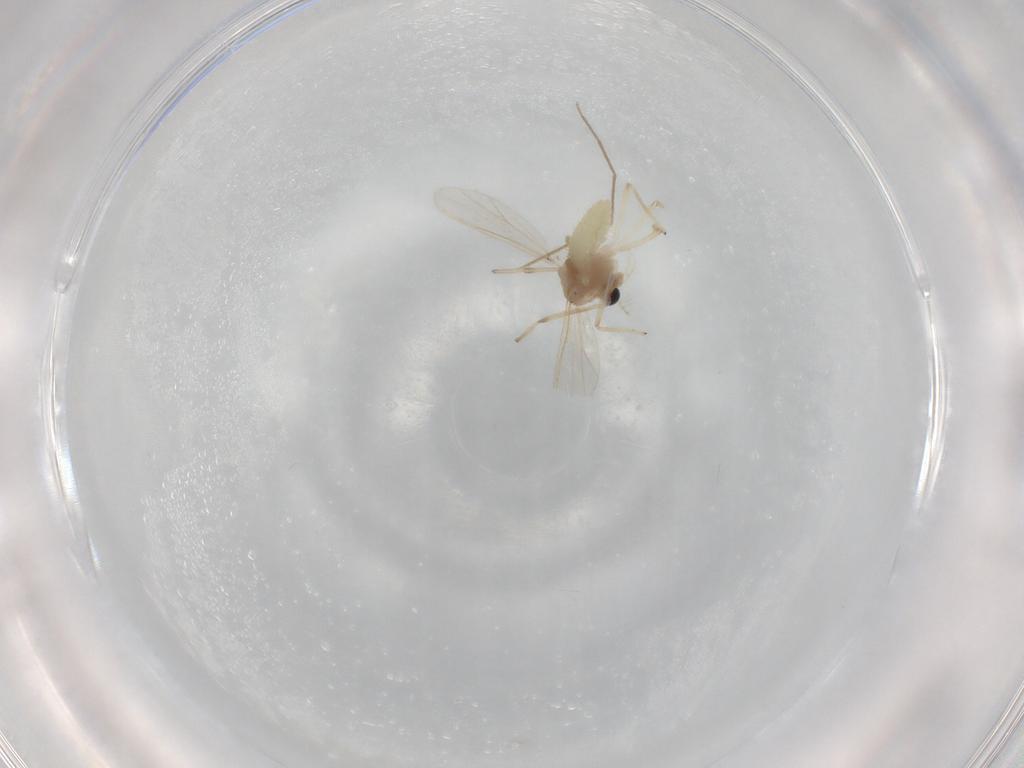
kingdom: Animalia
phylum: Arthropoda
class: Insecta
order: Diptera
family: Chironomidae
